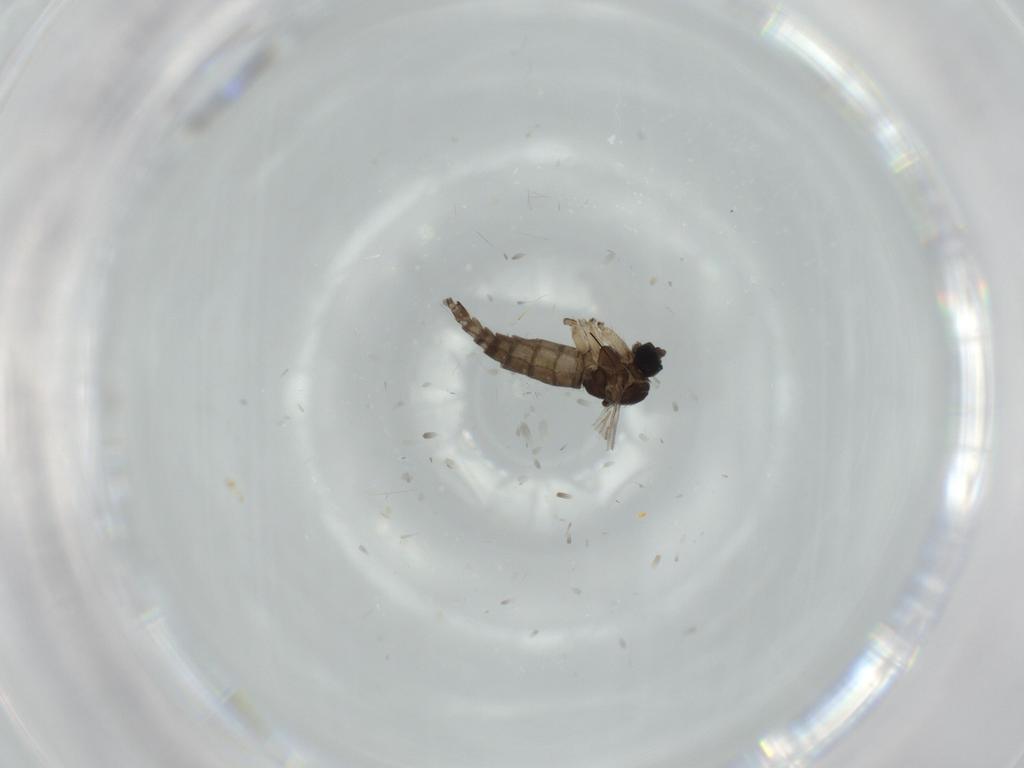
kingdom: Animalia
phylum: Arthropoda
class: Insecta
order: Diptera
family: Sciaridae
